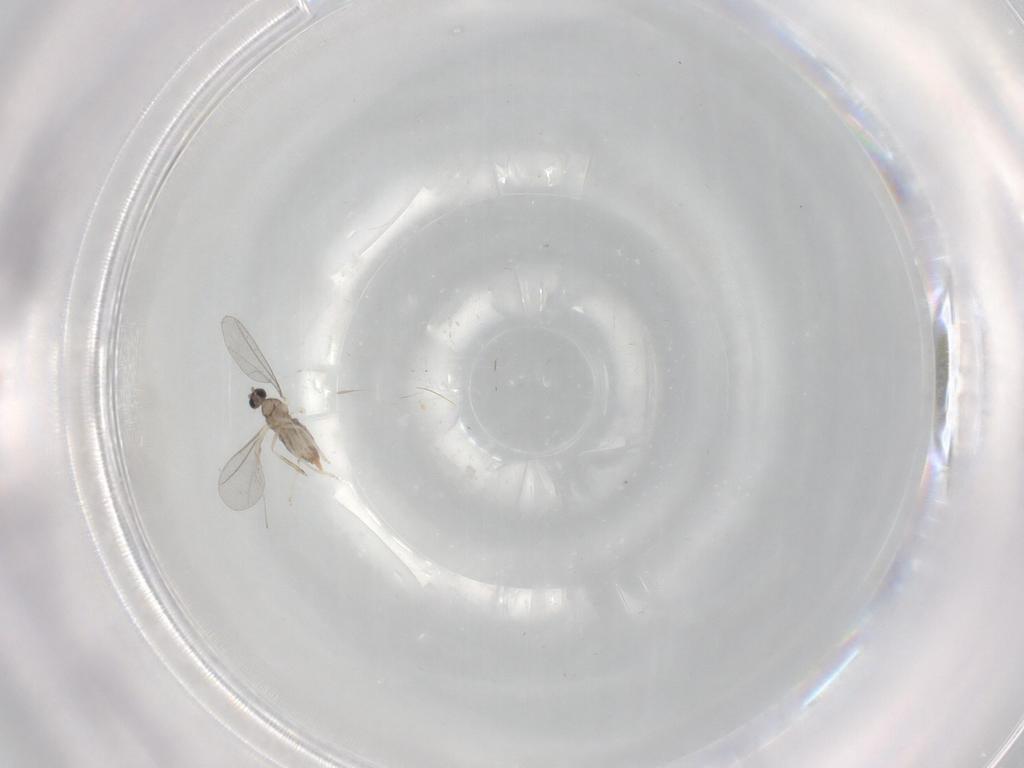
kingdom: Animalia
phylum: Arthropoda
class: Insecta
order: Diptera
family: Cecidomyiidae
